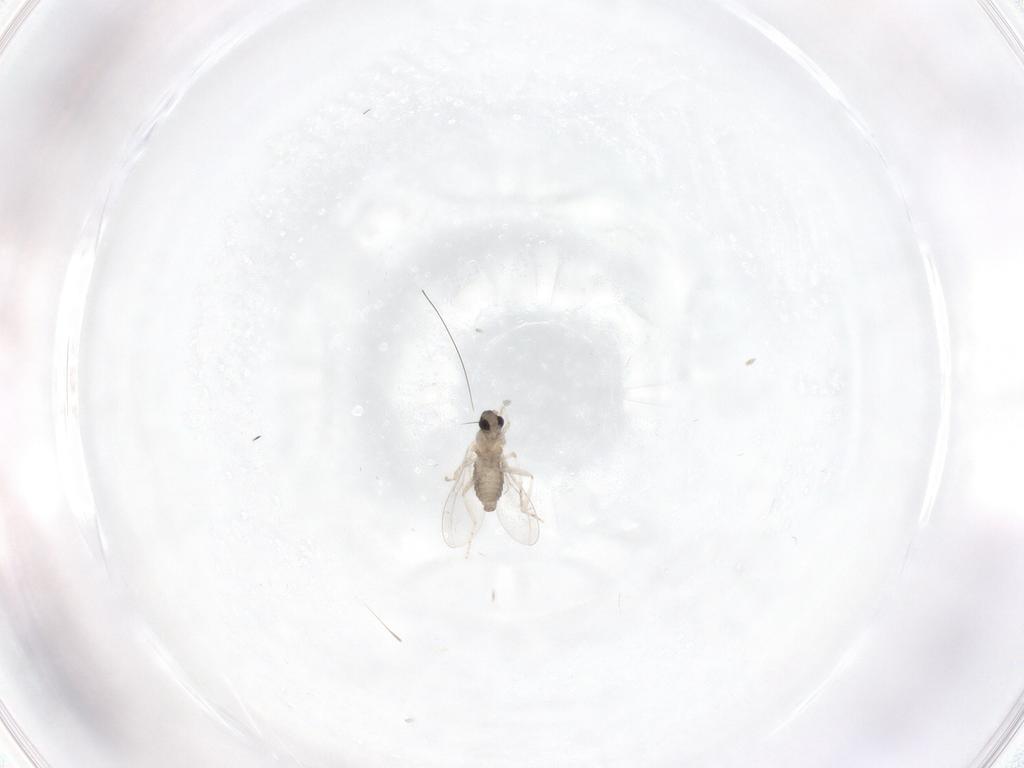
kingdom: Animalia
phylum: Arthropoda
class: Insecta
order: Diptera
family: Cecidomyiidae
